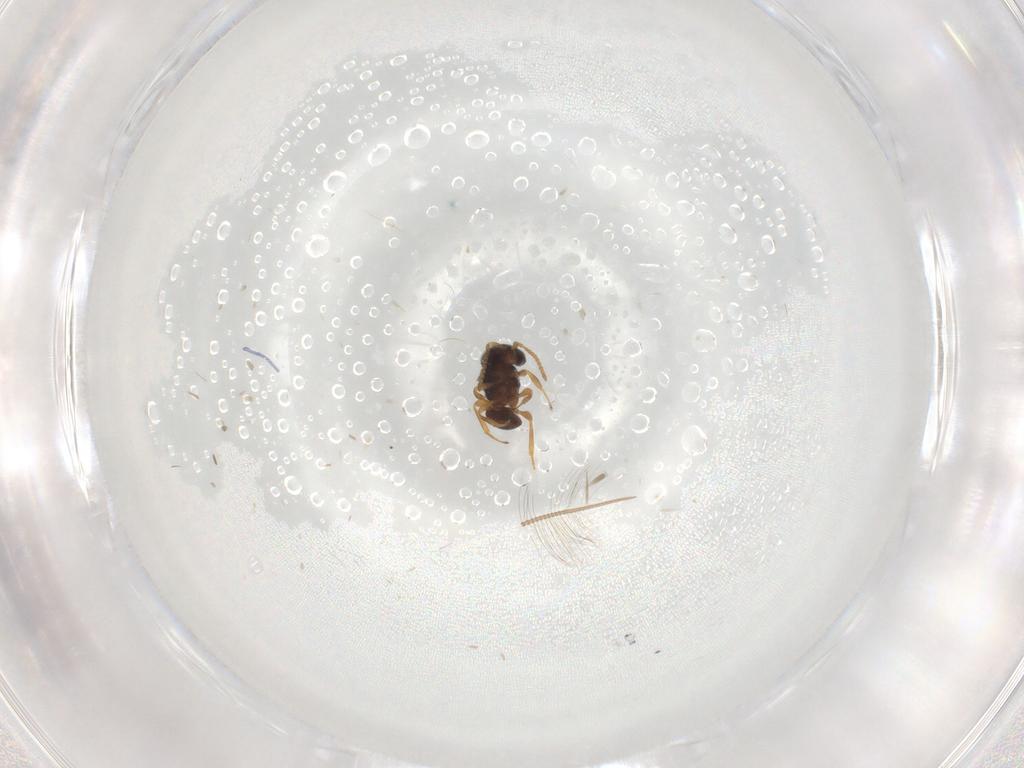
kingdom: Animalia
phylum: Arthropoda
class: Insecta
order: Hymenoptera
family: Scelionidae
